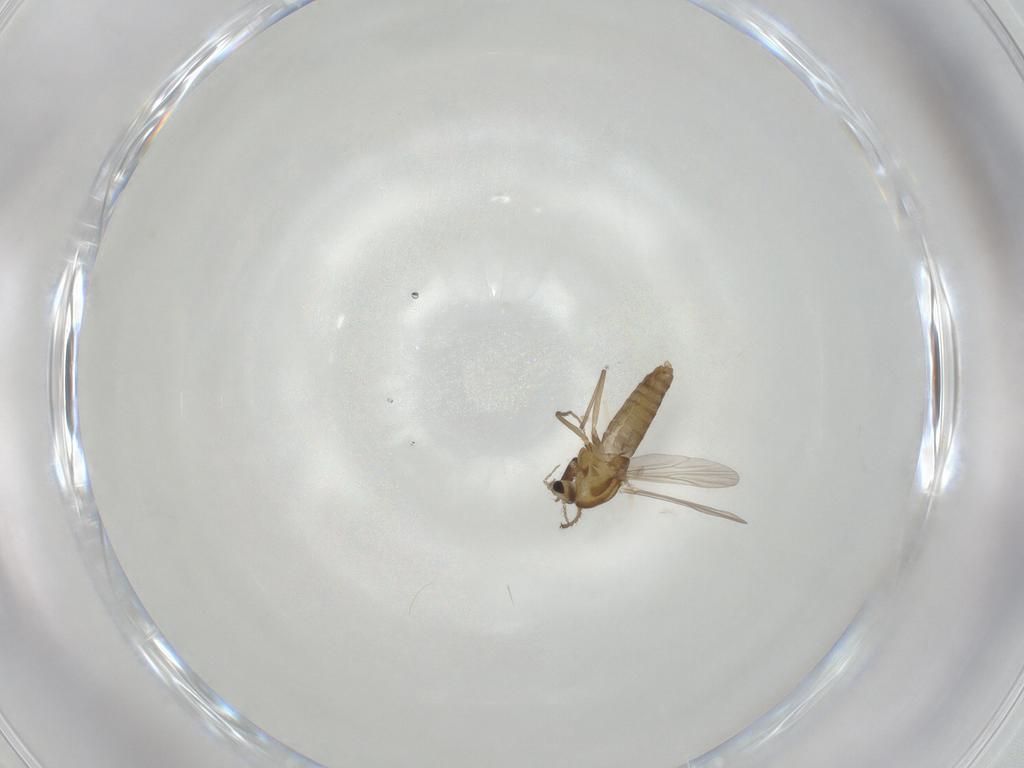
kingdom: Animalia
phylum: Arthropoda
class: Insecta
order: Diptera
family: Chironomidae
